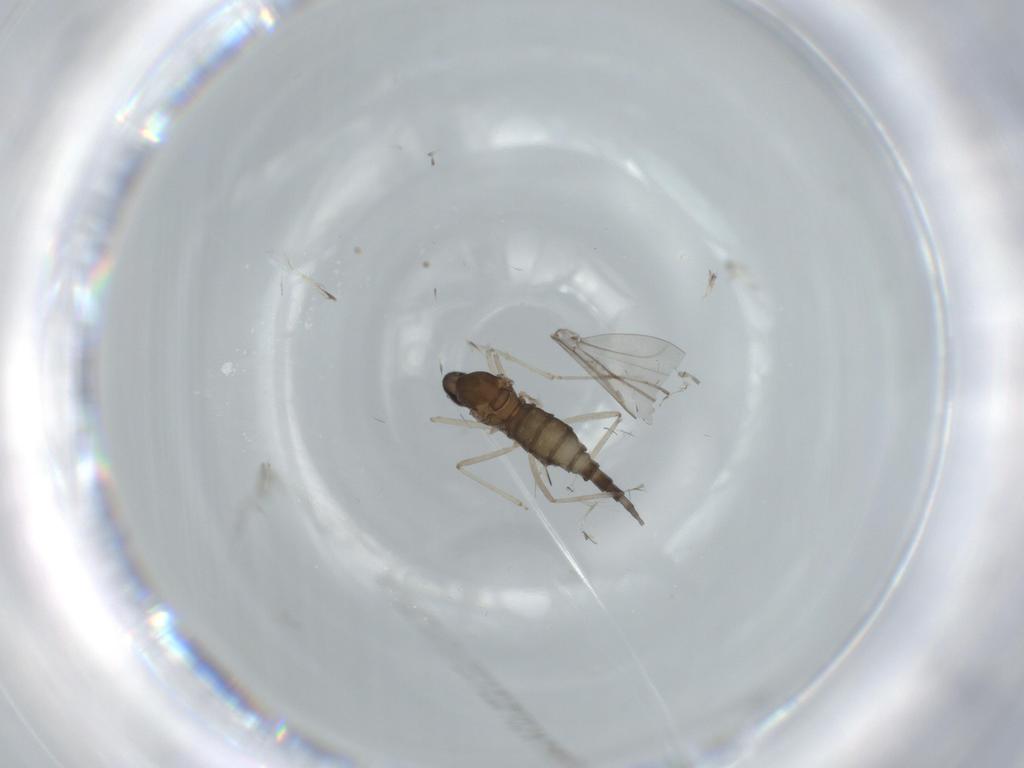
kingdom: Animalia
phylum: Arthropoda
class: Insecta
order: Diptera
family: Cecidomyiidae
